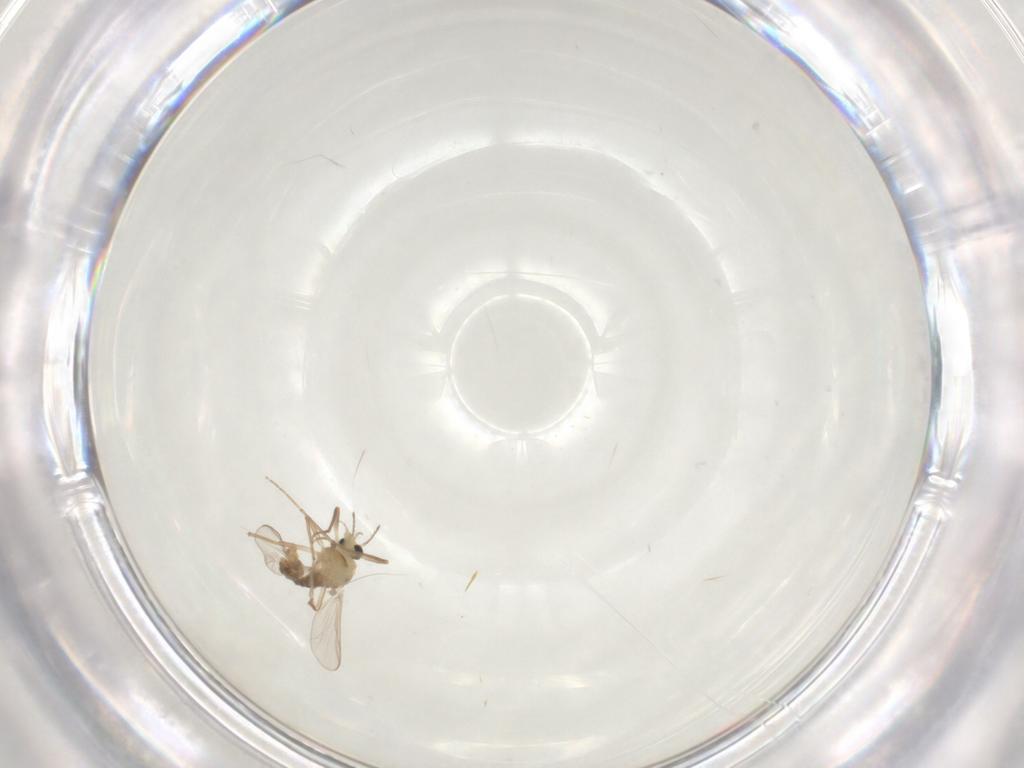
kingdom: Animalia
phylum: Arthropoda
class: Insecta
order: Diptera
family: Chironomidae
